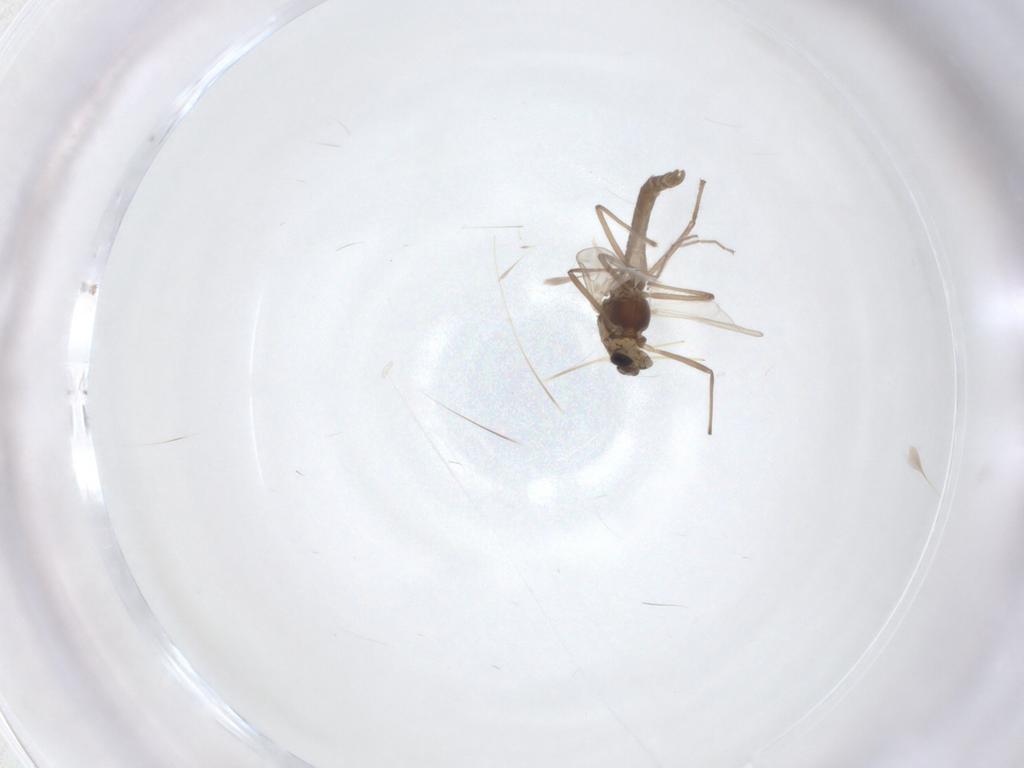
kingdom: Animalia
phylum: Arthropoda
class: Insecta
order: Diptera
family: Chironomidae
